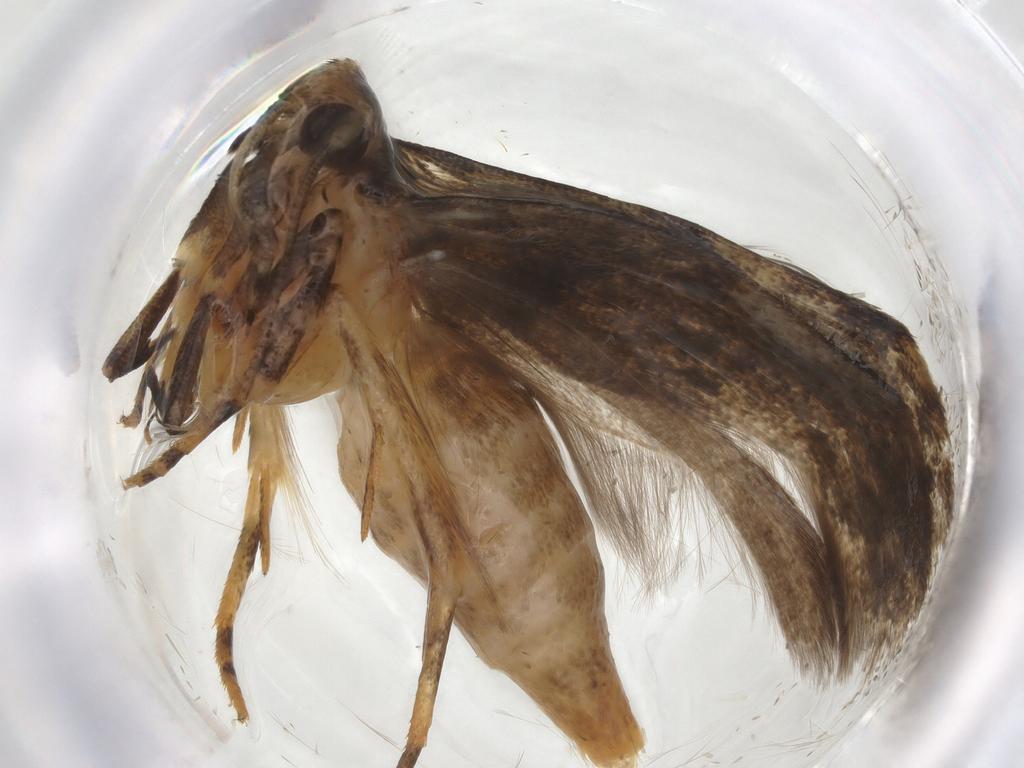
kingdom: Animalia
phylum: Arthropoda
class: Insecta
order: Lepidoptera
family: Gelechiidae
